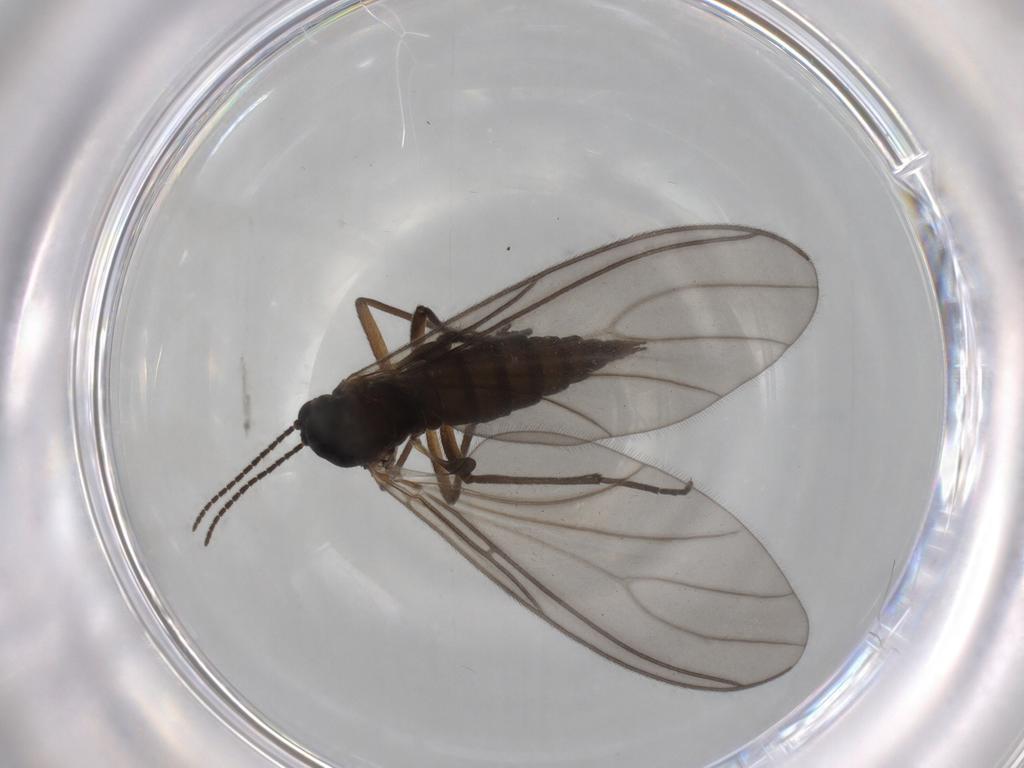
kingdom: Animalia
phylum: Arthropoda
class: Insecta
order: Diptera
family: Sciaridae
